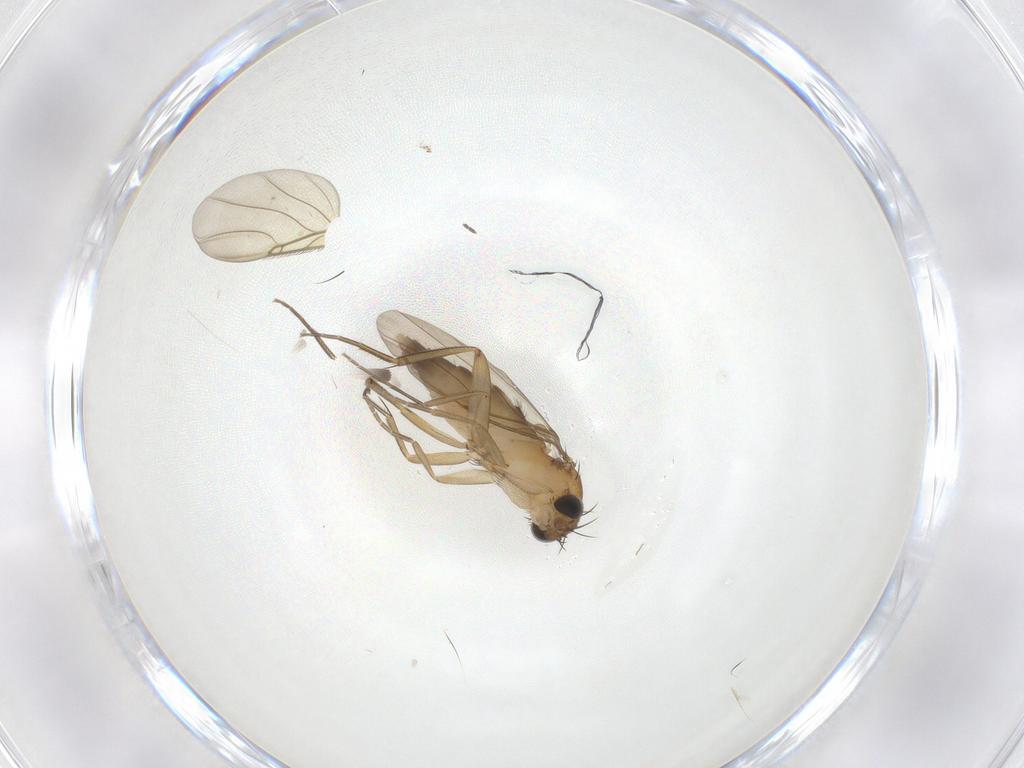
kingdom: Animalia
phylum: Arthropoda
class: Insecta
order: Diptera
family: Phoridae
